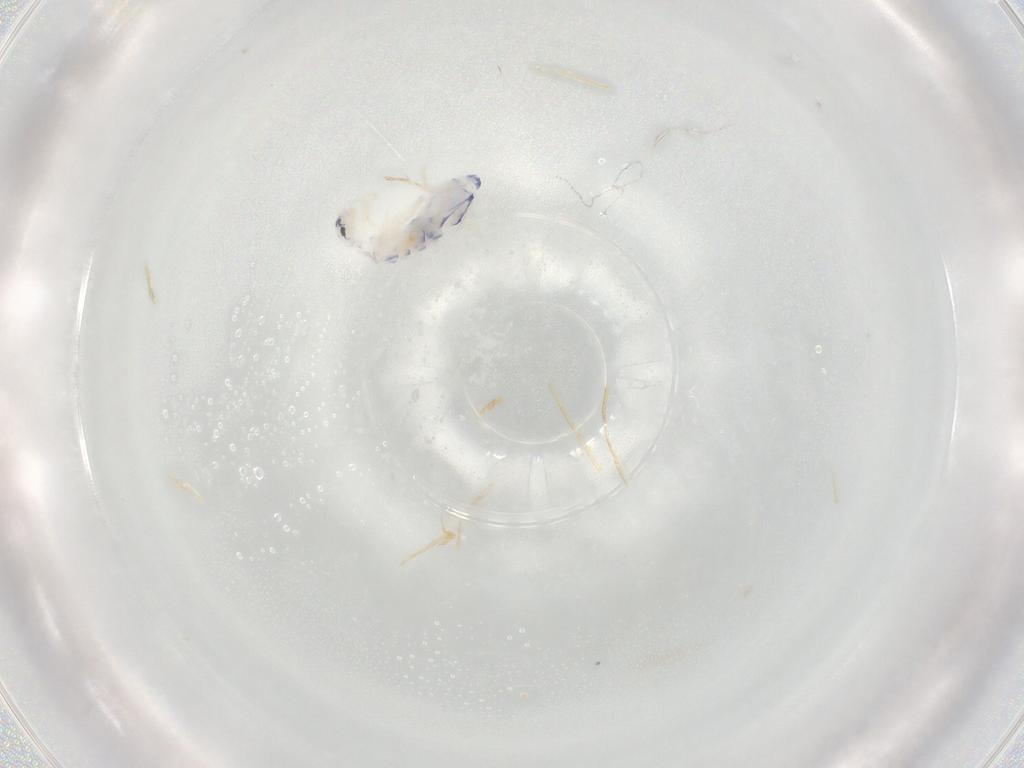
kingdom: Animalia
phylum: Arthropoda
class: Collembola
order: Entomobryomorpha
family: Entomobryidae
